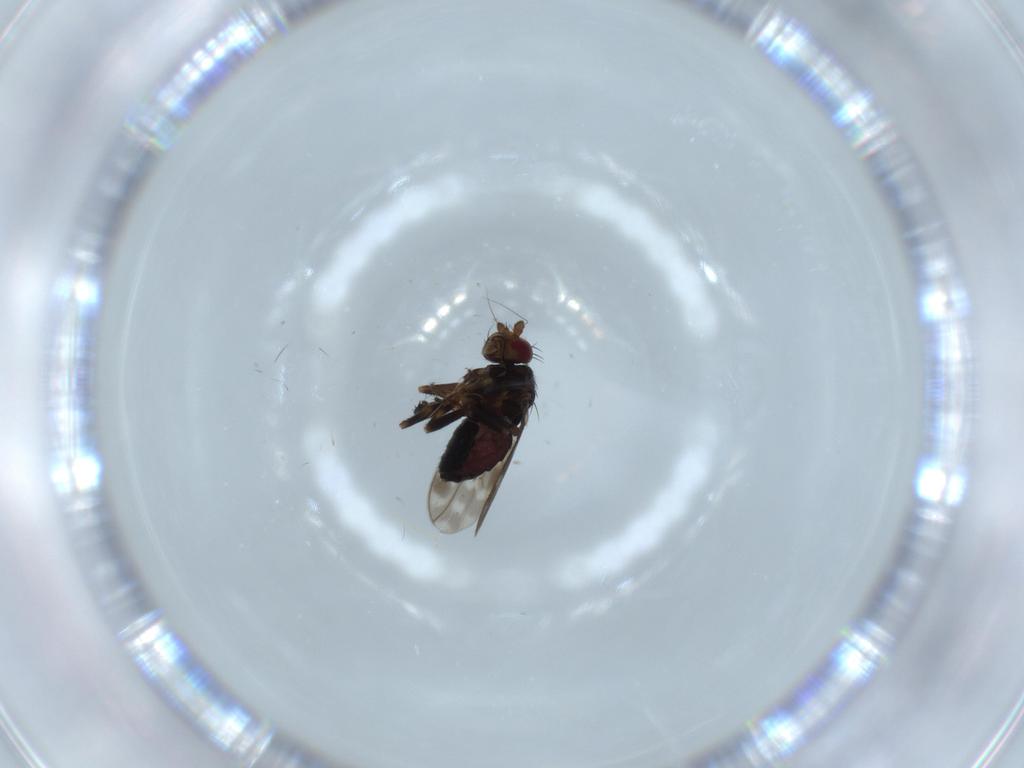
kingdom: Animalia
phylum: Arthropoda
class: Insecta
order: Diptera
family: Sphaeroceridae
